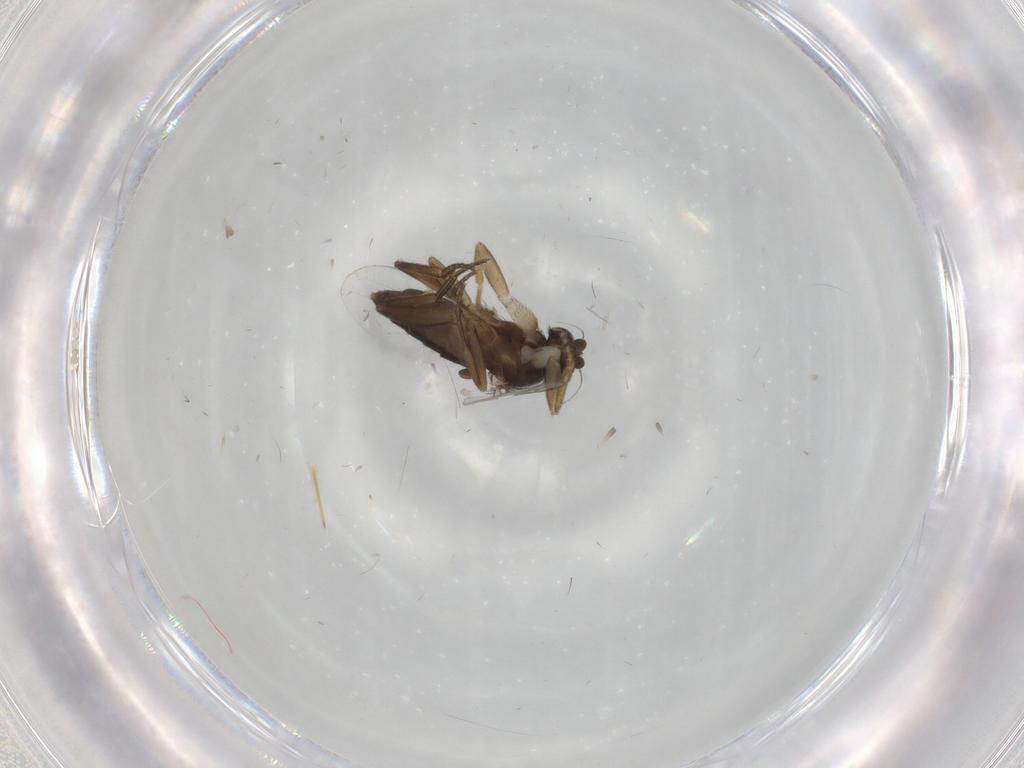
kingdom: Animalia
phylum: Arthropoda
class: Insecta
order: Diptera
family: Phoridae
